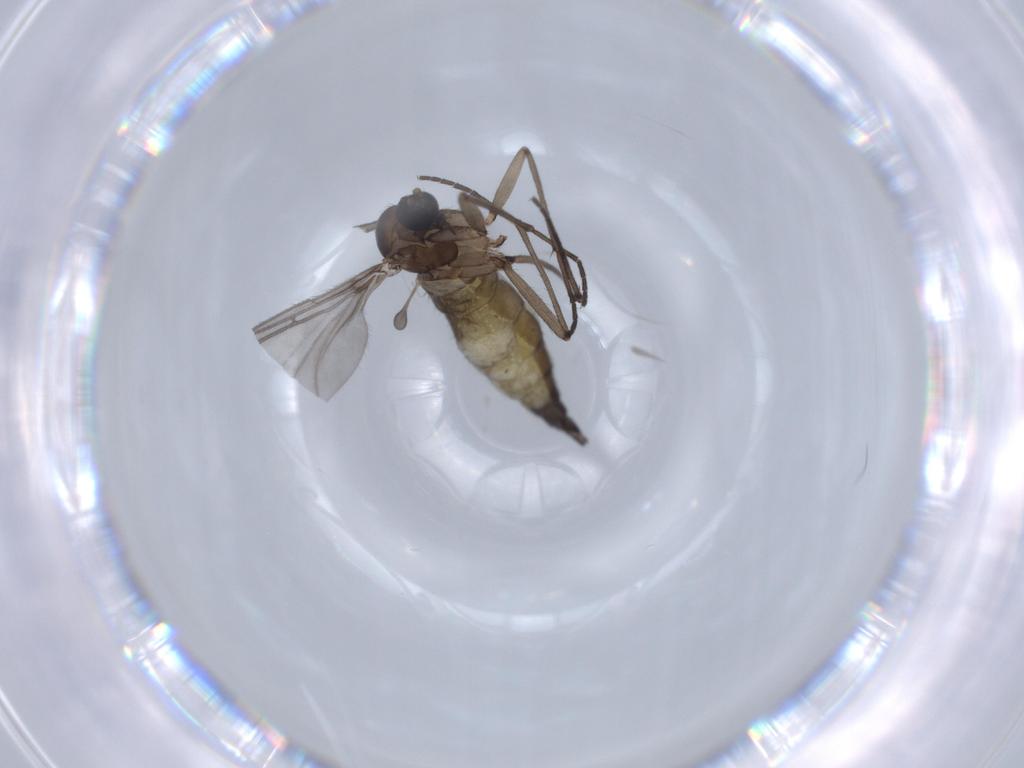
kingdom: Animalia
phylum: Arthropoda
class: Insecta
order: Diptera
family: Sciaridae
